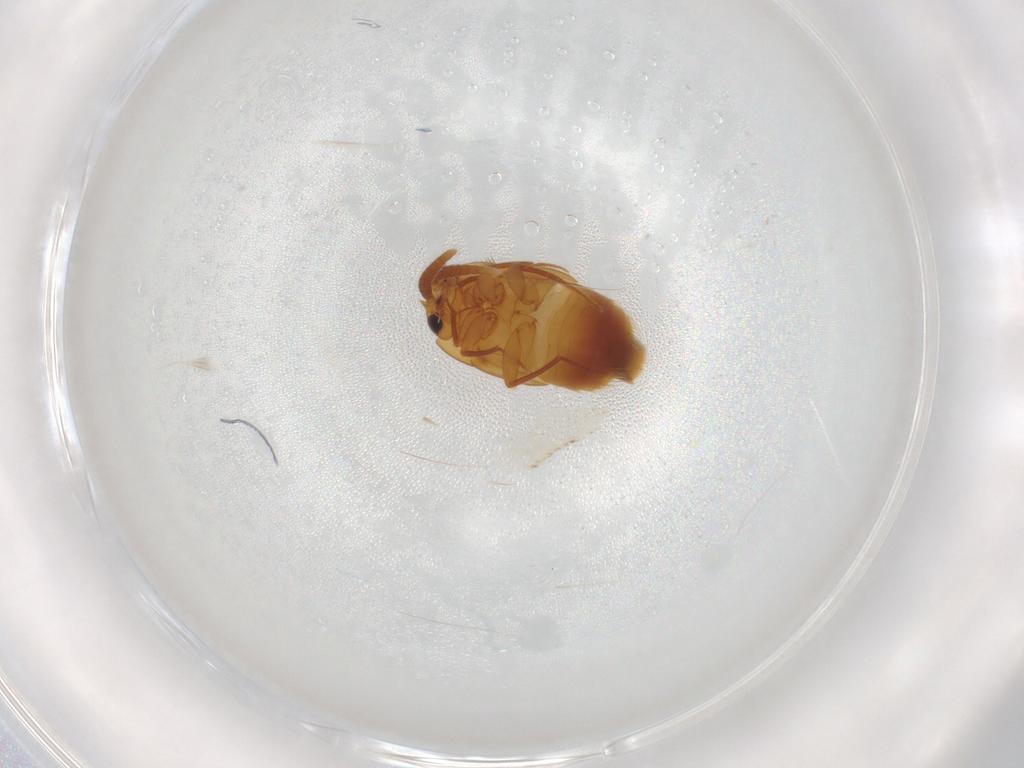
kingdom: Animalia
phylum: Arthropoda
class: Insecta
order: Coleoptera
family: Staphylinidae
